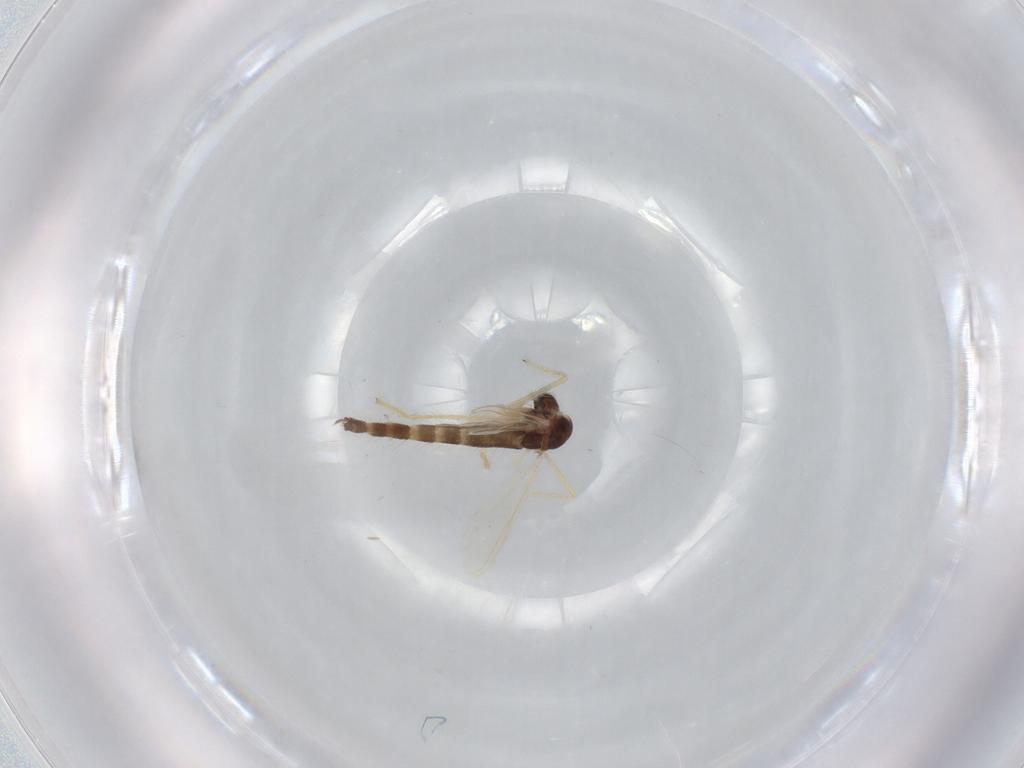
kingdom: Animalia
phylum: Arthropoda
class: Insecta
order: Diptera
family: Chironomidae
